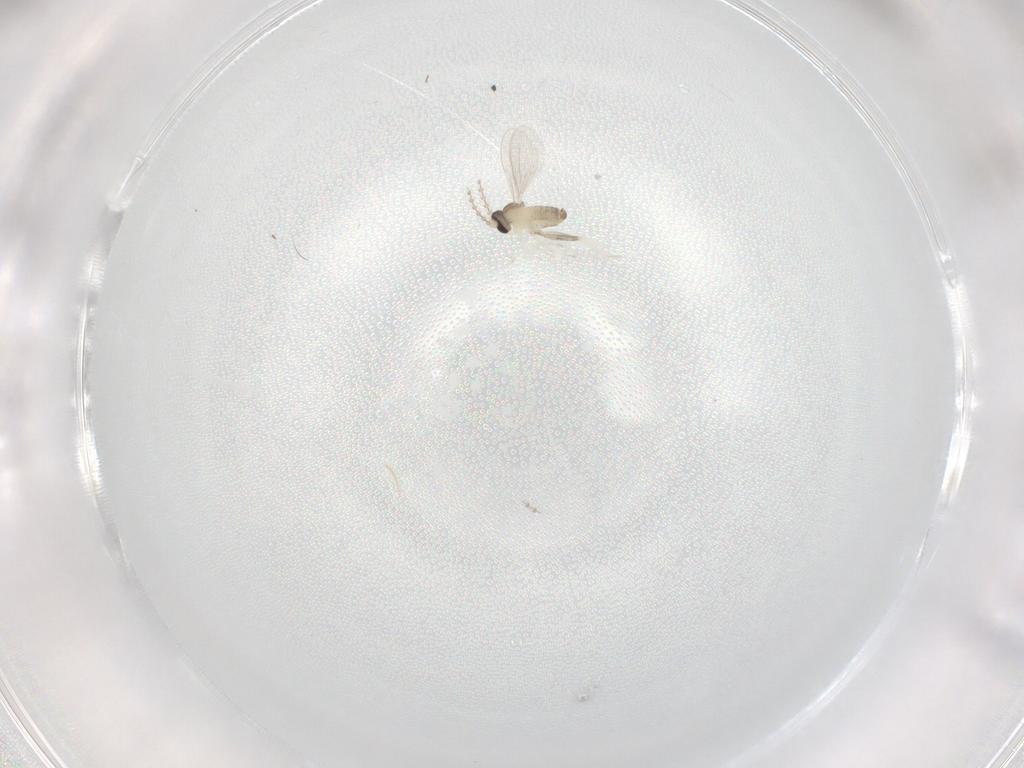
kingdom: Animalia
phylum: Arthropoda
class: Insecta
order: Diptera
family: Cecidomyiidae
